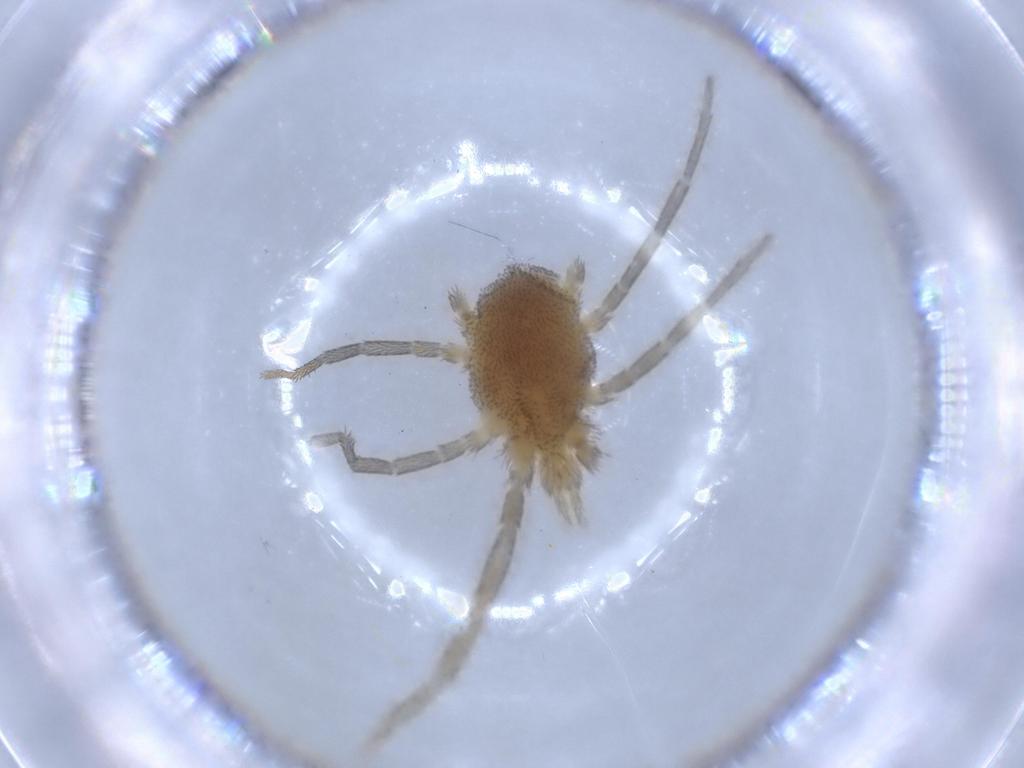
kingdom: Animalia
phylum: Arthropoda
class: Arachnida
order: Trombidiformes
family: Erythraeidae
